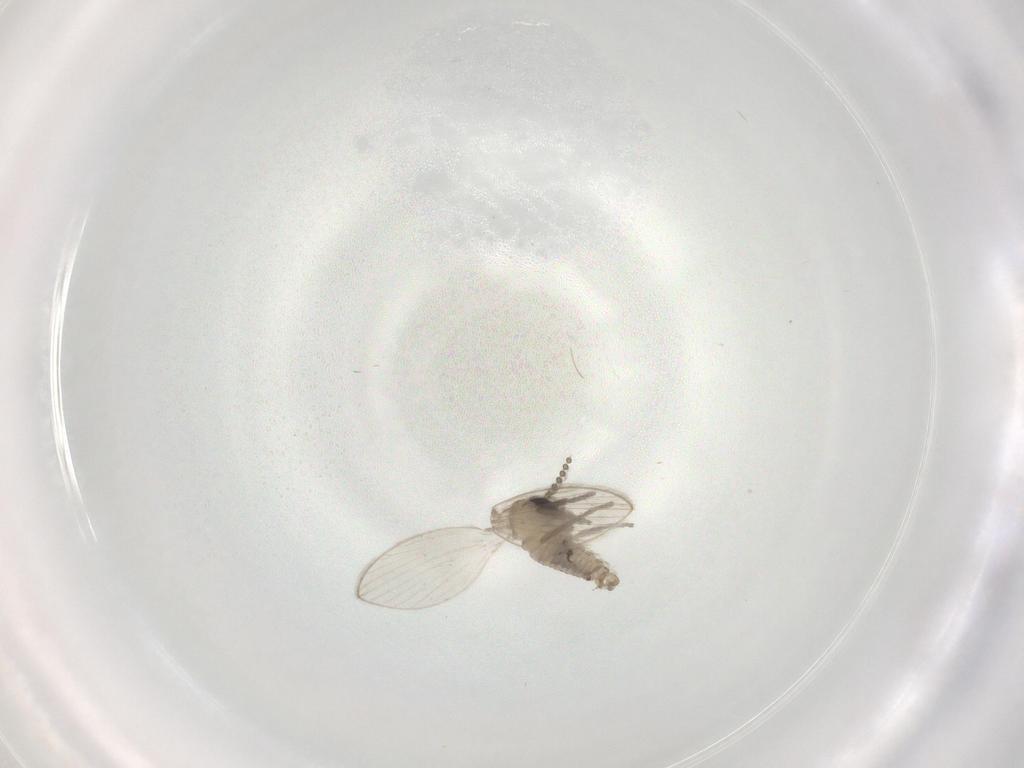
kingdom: Animalia
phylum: Arthropoda
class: Insecta
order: Diptera
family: Psychodidae
